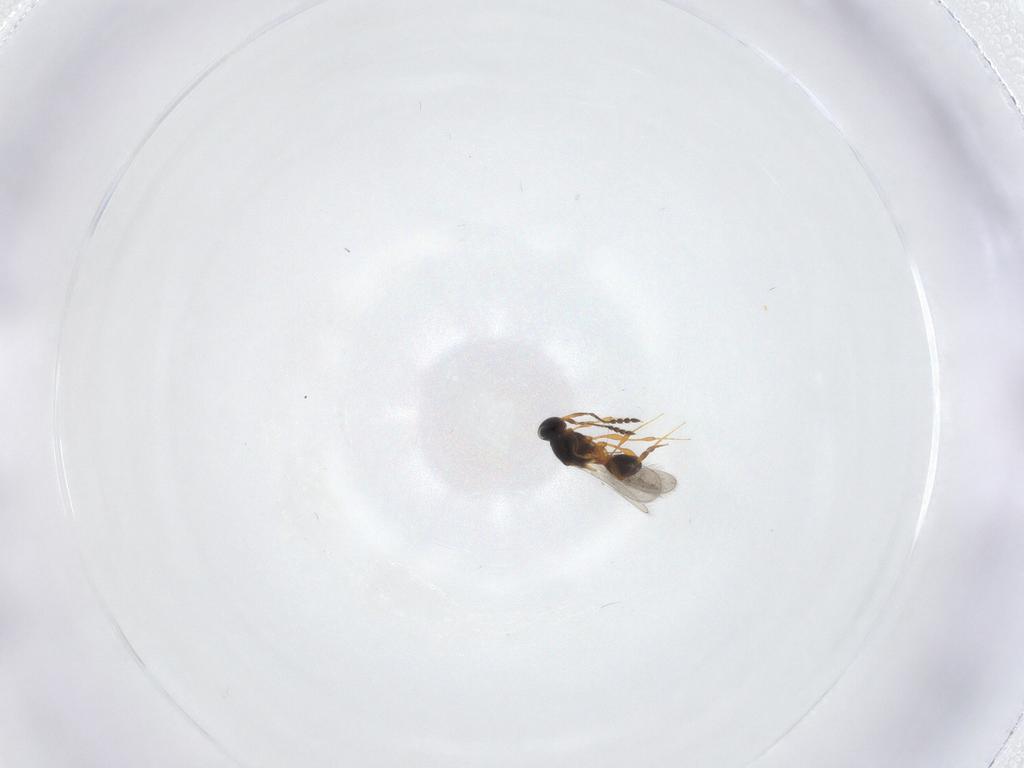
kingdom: Animalia
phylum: Arthropoda
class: Insecta
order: Hymenoptera
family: Platygastridae
